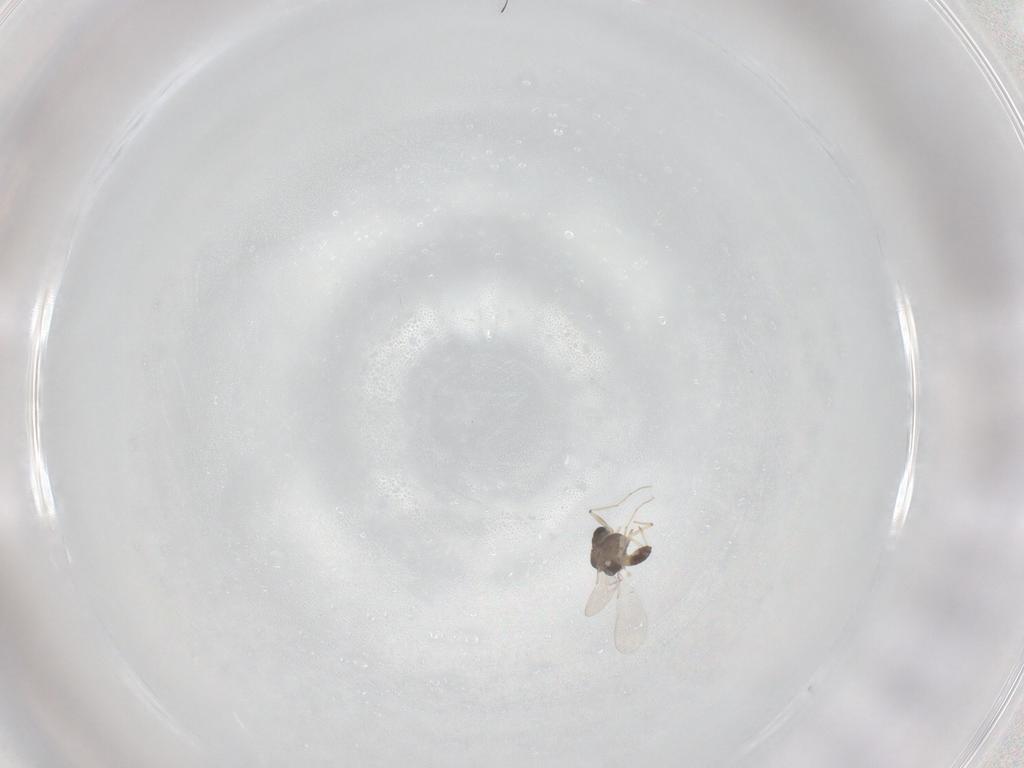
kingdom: Animalia
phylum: Arthropoda
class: Insecta
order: Diptera
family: Chironomidae
